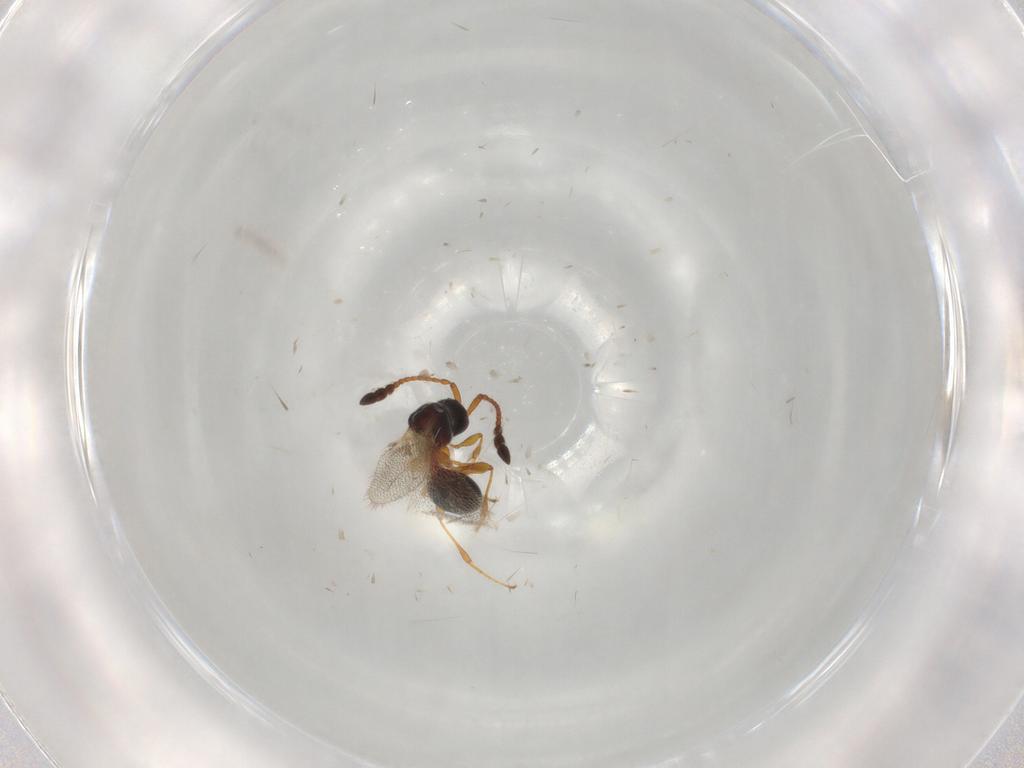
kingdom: Animalia
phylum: Arthropoda
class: Insecta
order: Hymenoptera
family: Diapriidae
